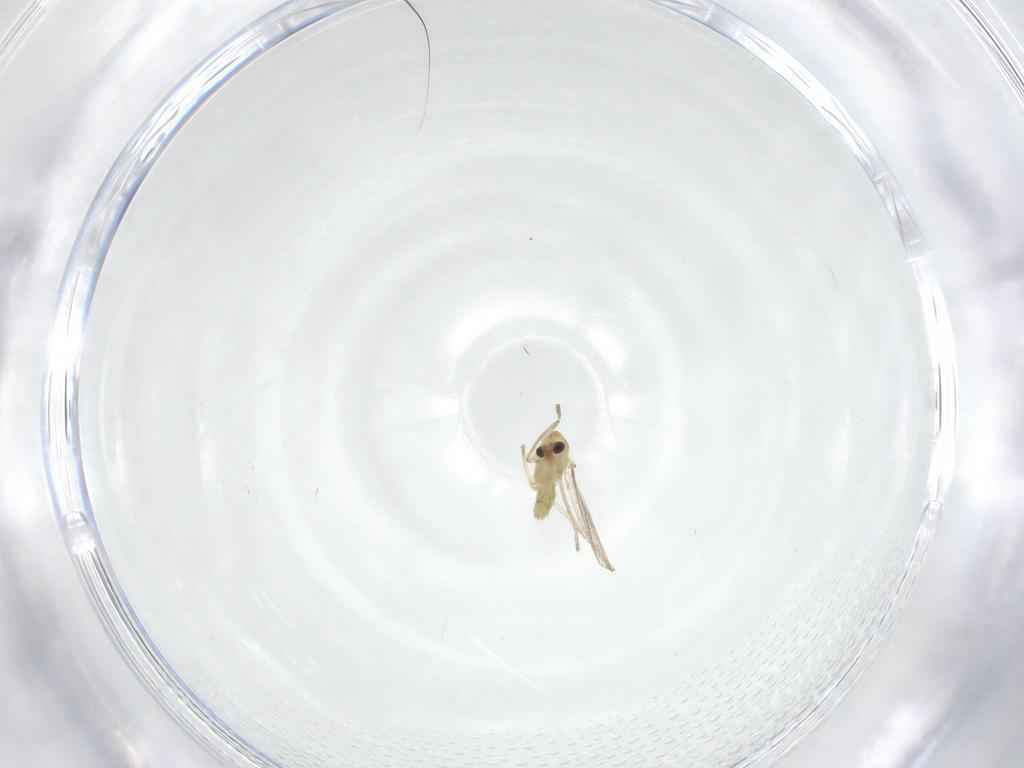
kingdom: Animalia
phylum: Arthropoda
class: Insecta
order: Diptera
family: Chironomidae
